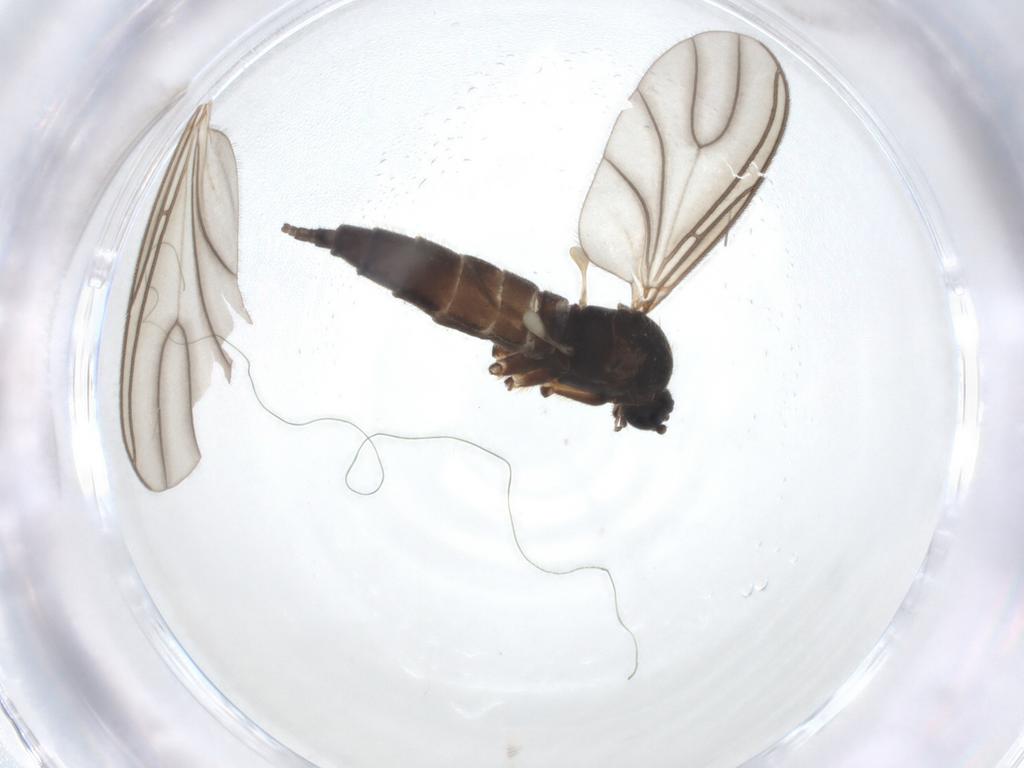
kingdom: Animalia
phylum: Arthropoda
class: Insecta
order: Diptera
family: Sciaridae
